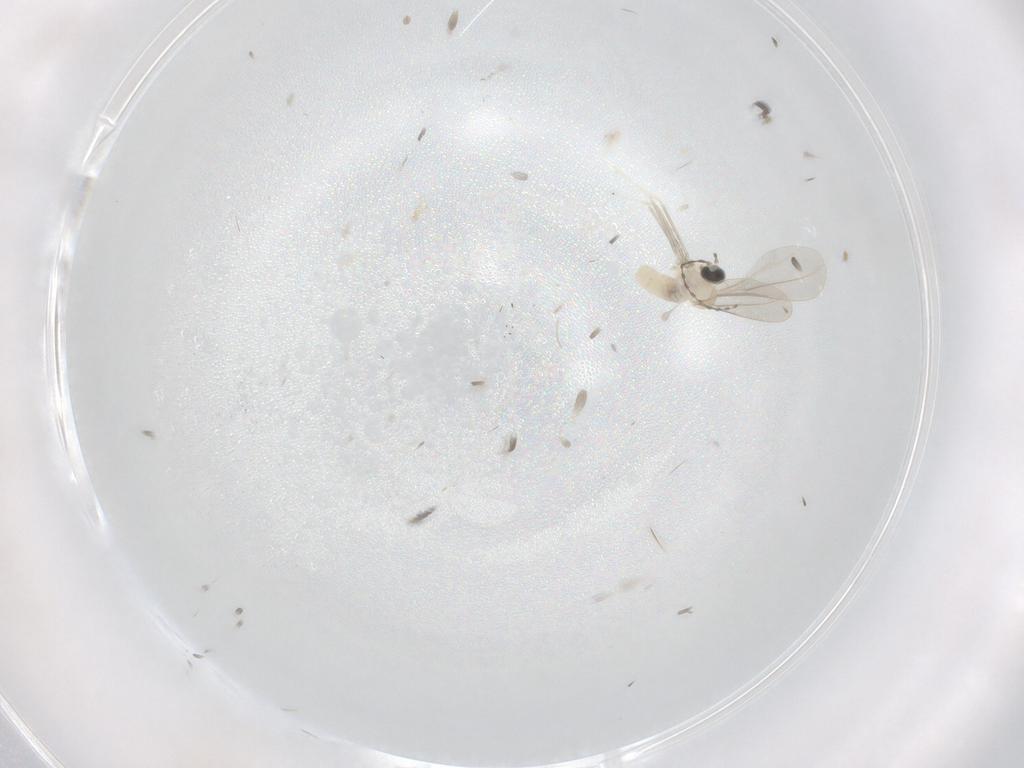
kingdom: Animalia
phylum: Arthropoda
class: Insecta
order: Diptera
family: Cecidomyiidae
